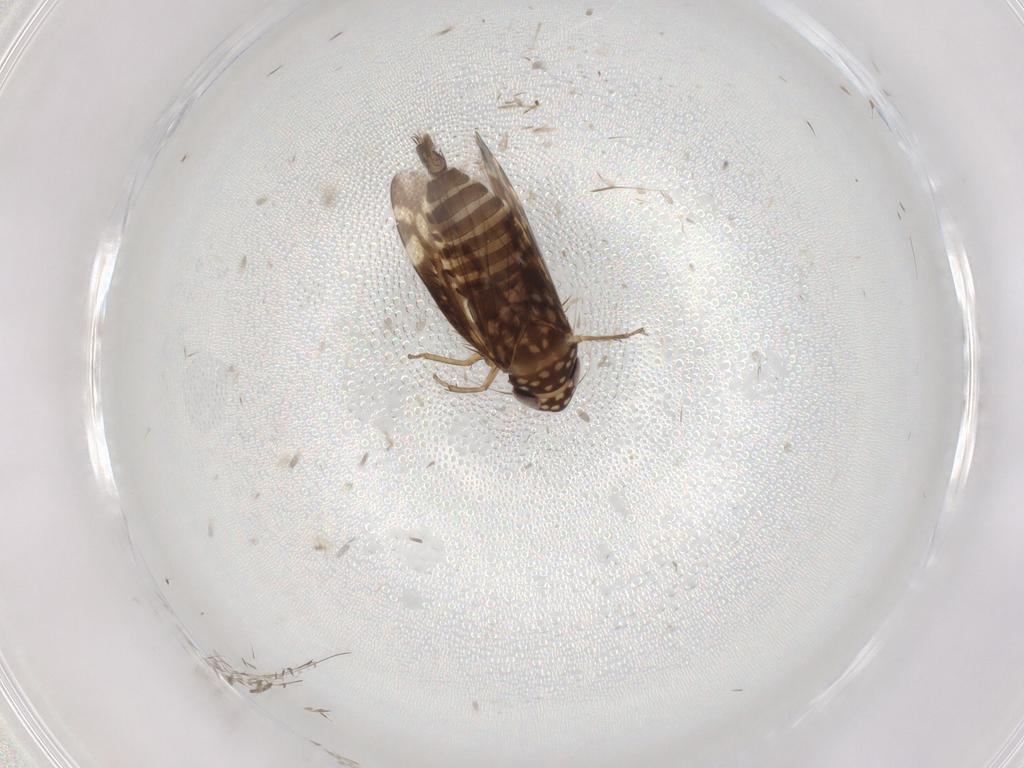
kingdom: Animalia
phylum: Arthropoda
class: Insecta
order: Hemiptera
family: Cicadellidae
